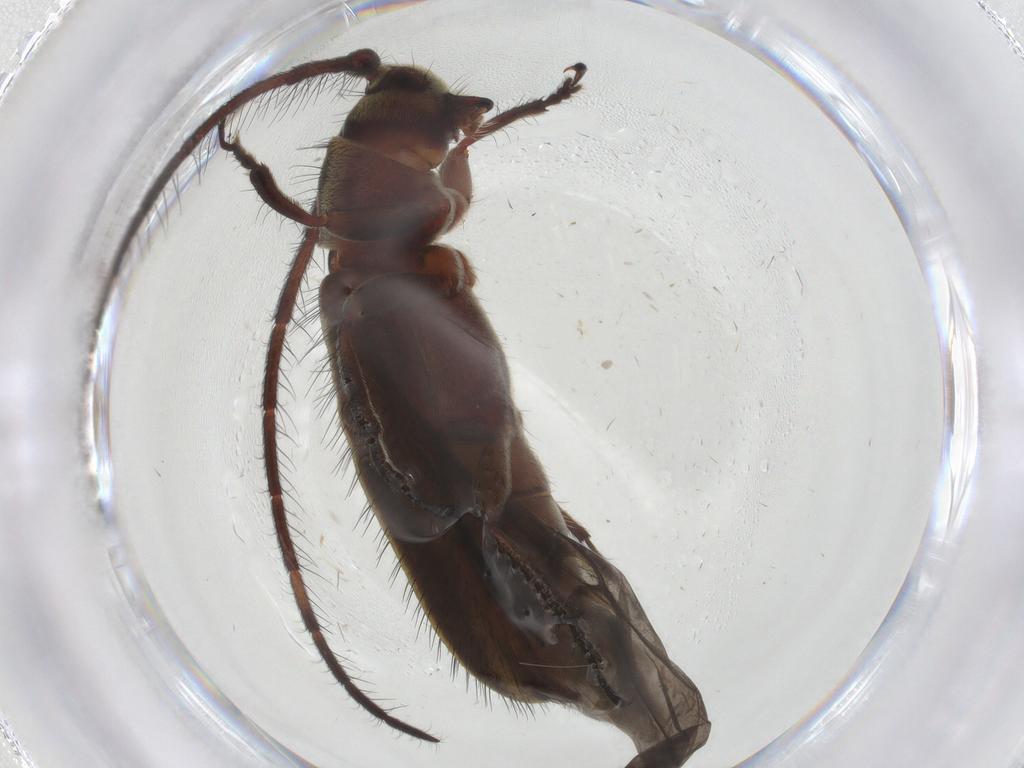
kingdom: Animalia
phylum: Arthropoda
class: Insecta
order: Coleoptera
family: Cerambycidae
